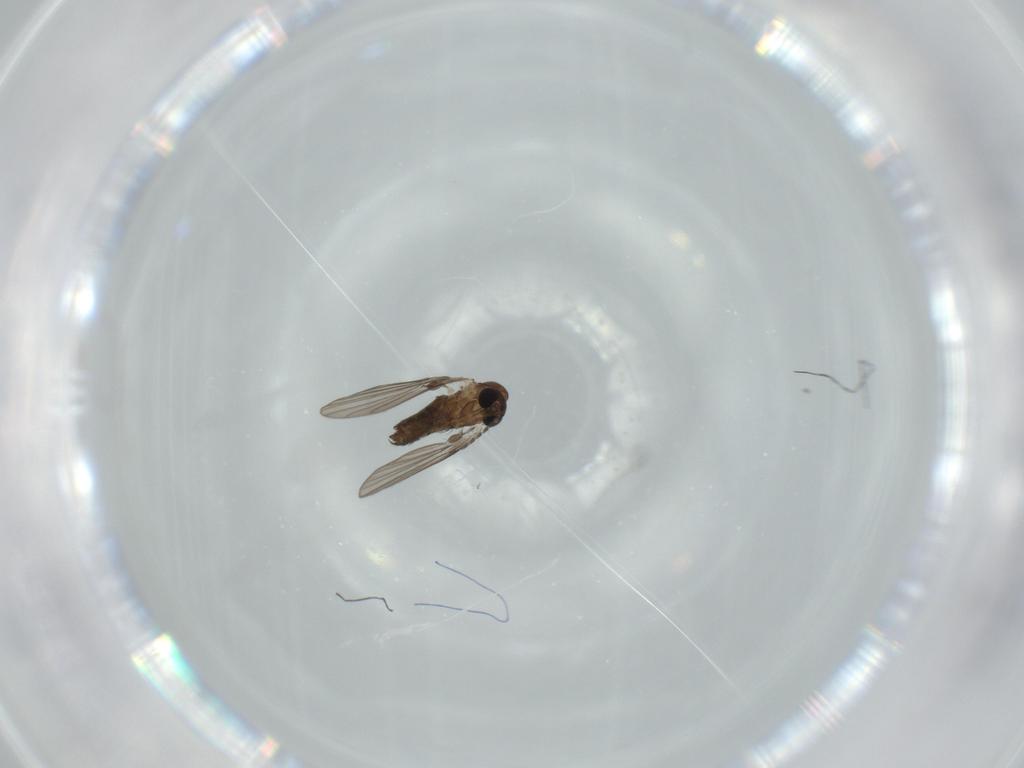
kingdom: Animalia
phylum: Arthropoda
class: Insecta
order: Diptera
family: Psychodidae
